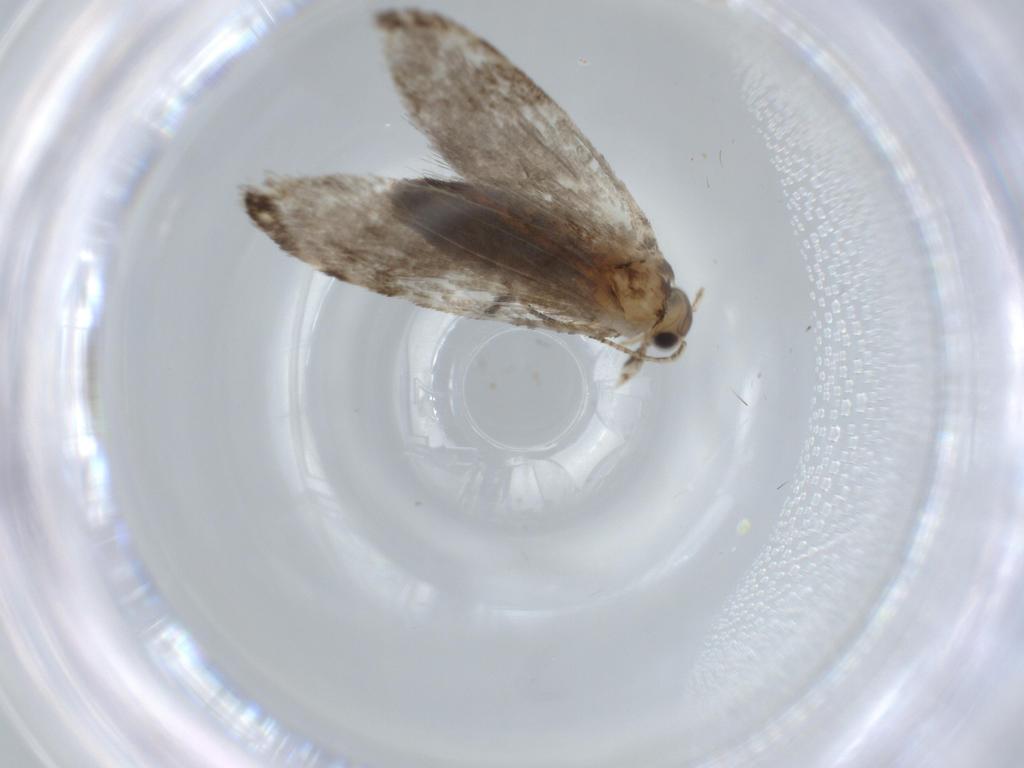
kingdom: Animalia
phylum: Arthropoda
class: Insecta
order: Lepidoptera
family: Tineidae
